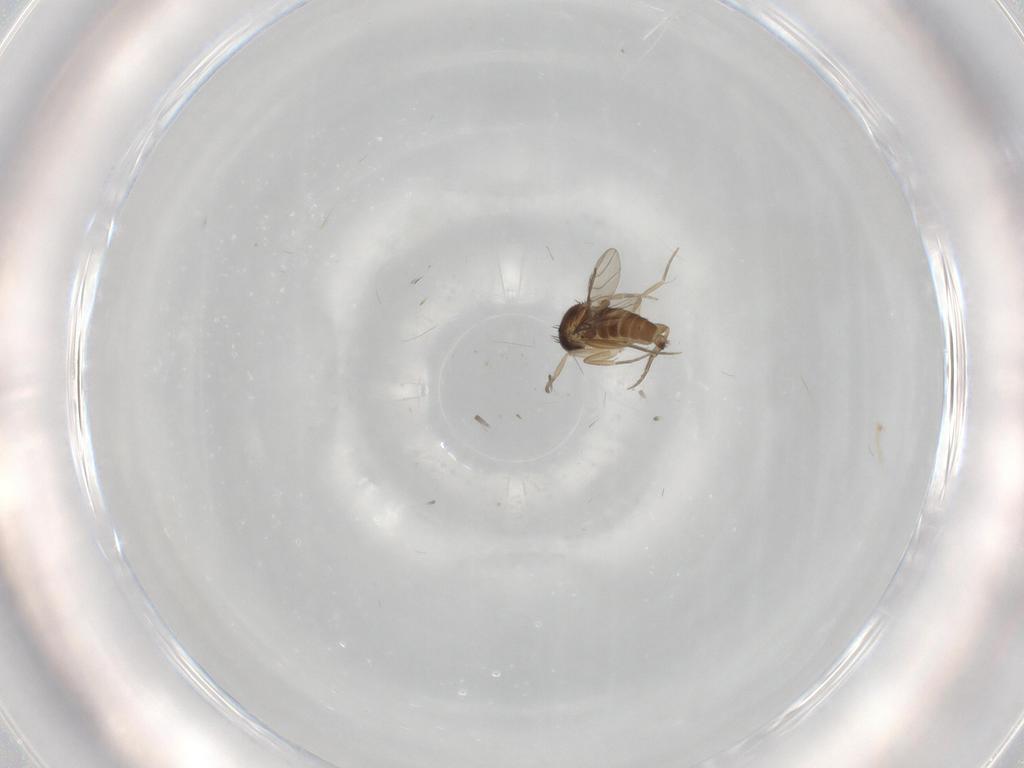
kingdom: Animalia
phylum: Arthropoda
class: Insecta
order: Diptera
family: Phoridae
